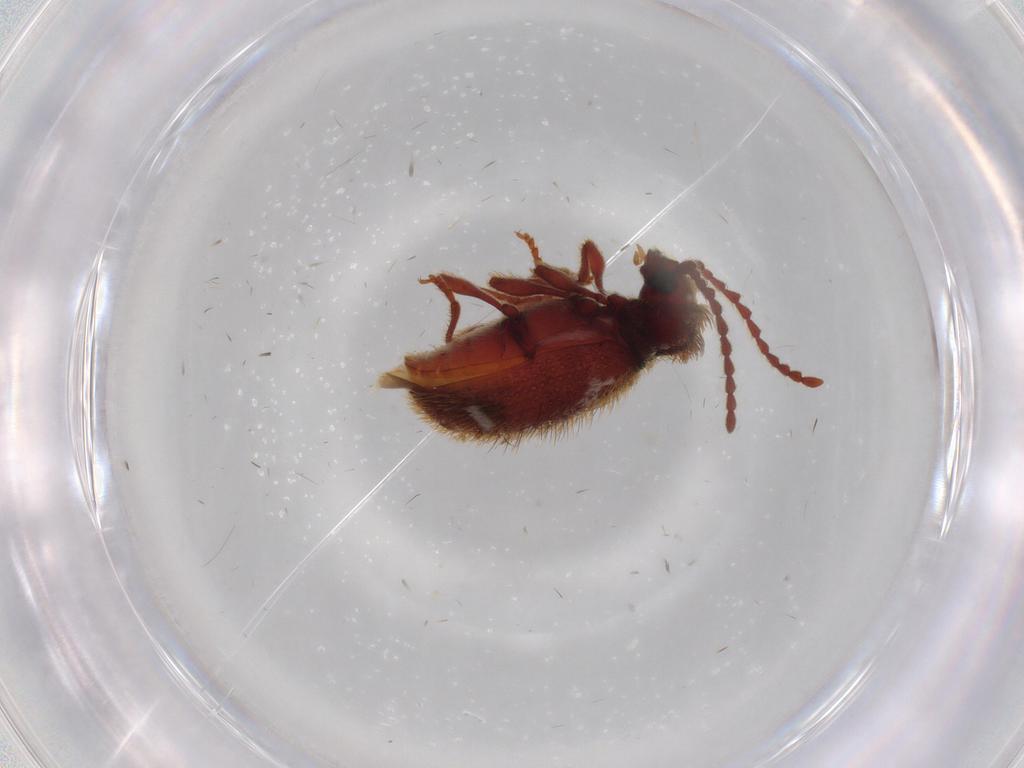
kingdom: Animalia
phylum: Arthropoda
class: Insecta
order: Coleoptera
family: Ptinidae
